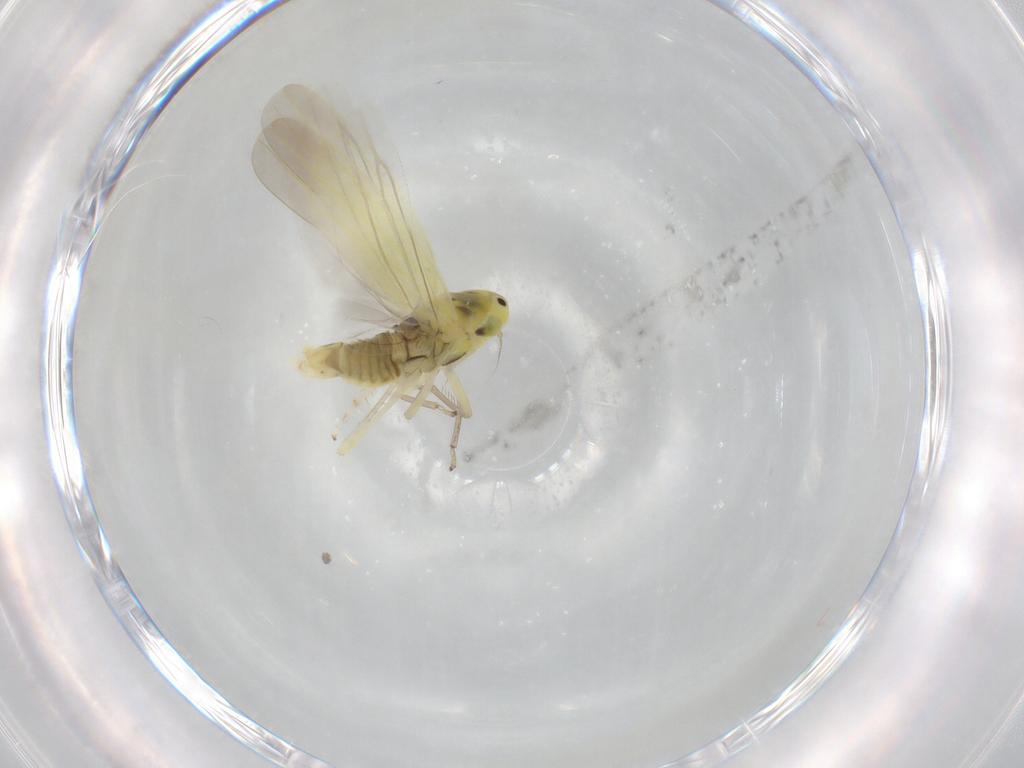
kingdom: Animalia
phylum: Arthropoda
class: Insecta
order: Hemiptera
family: Cicadellidae
